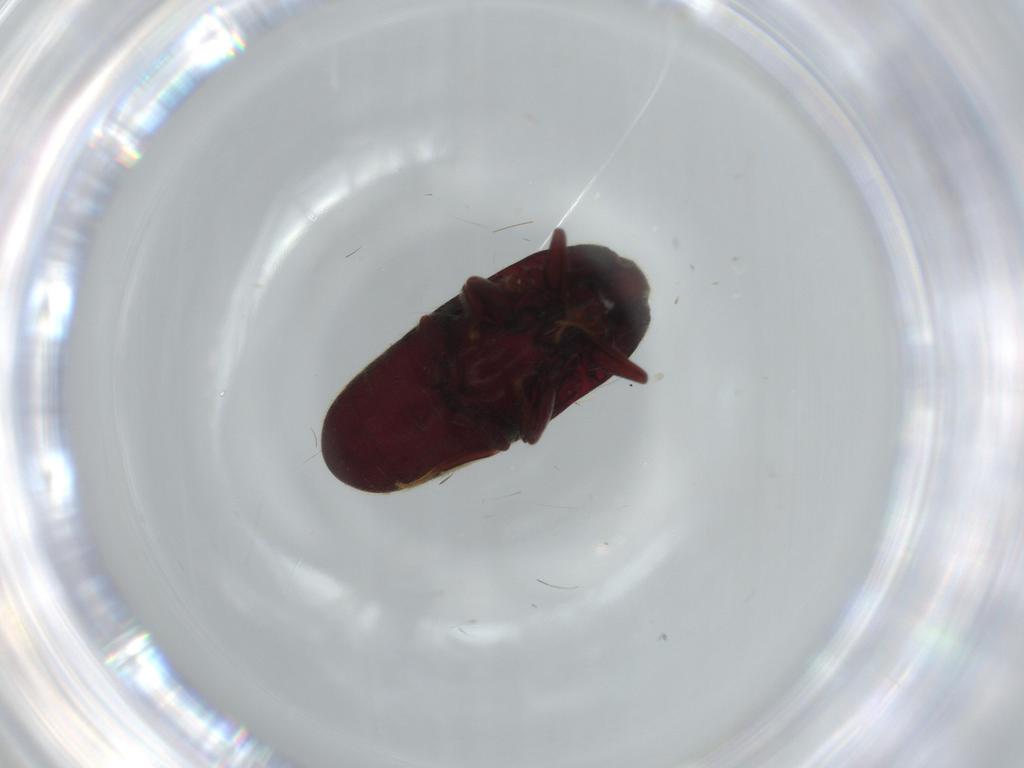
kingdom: Animalia
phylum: Arthropoda
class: Insecta
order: Coleoptera
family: Throscidae
